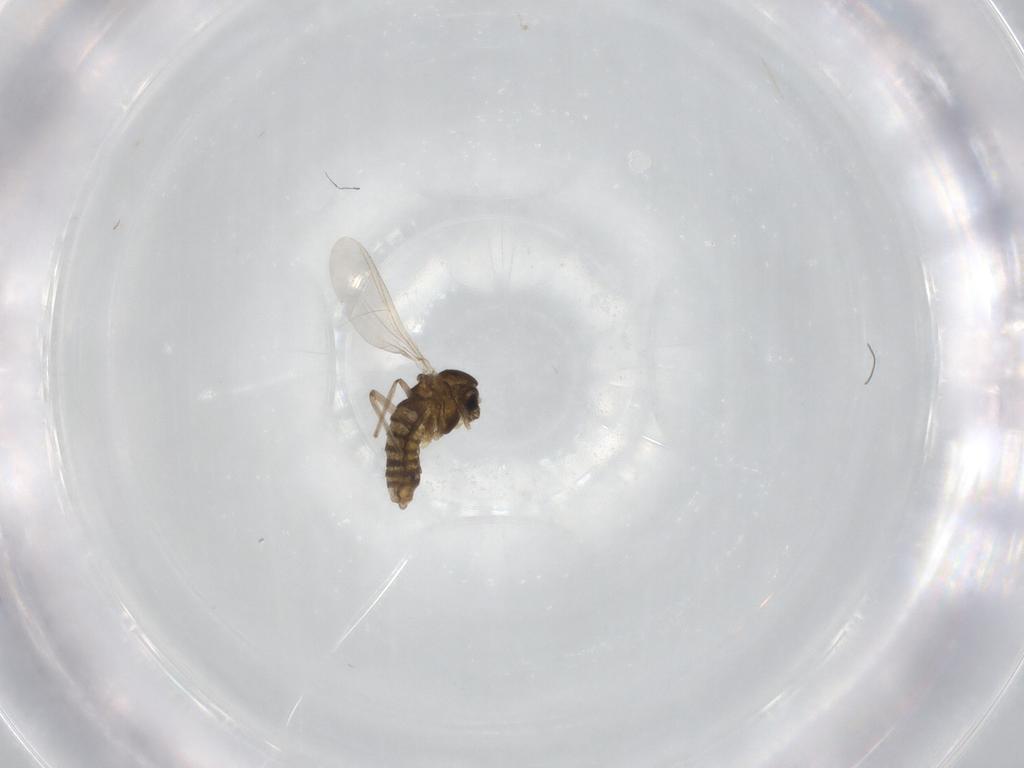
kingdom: Animalia
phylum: Arthropoda
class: Insecta
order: Diptera
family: Chironomidae
